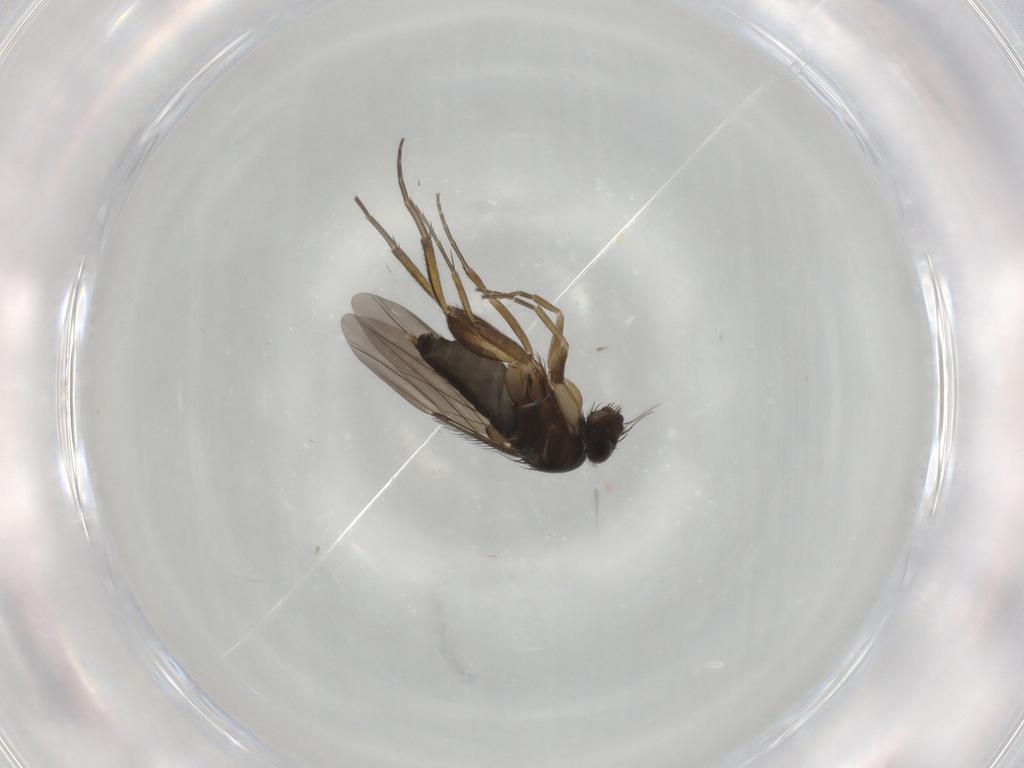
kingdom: Animalia
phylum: Arthropoda
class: Insecta
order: Diptera
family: Phoridae
